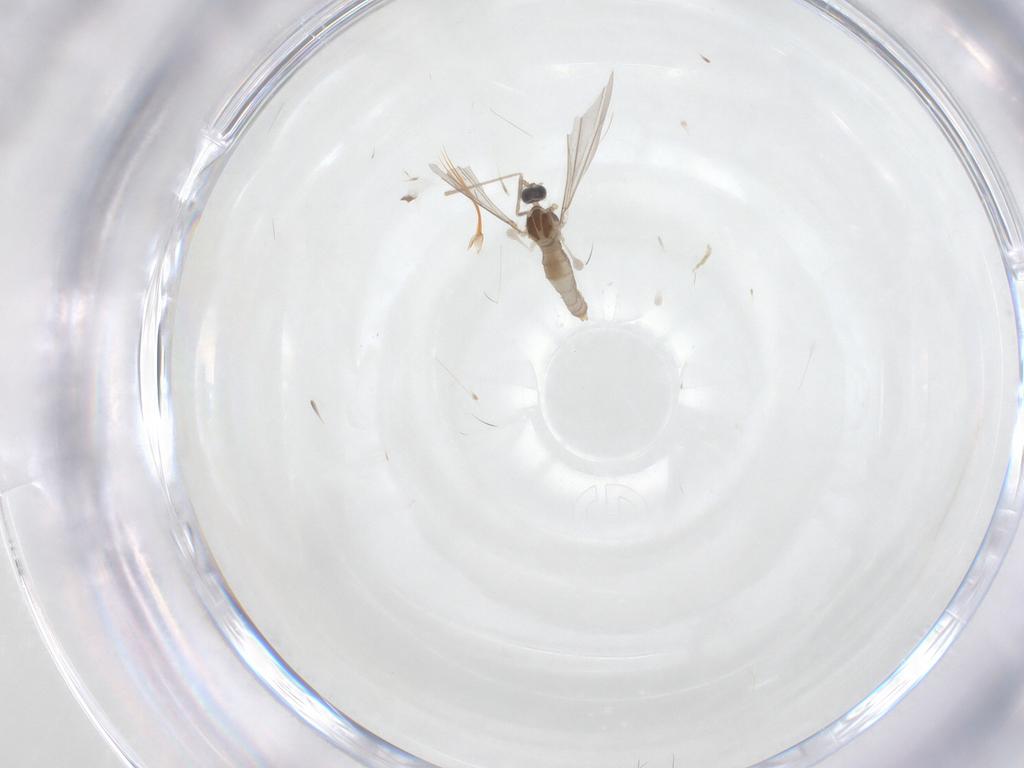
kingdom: Animalia
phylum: Arthropoda
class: Insecta
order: Diptera
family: Cecidomyiidae
